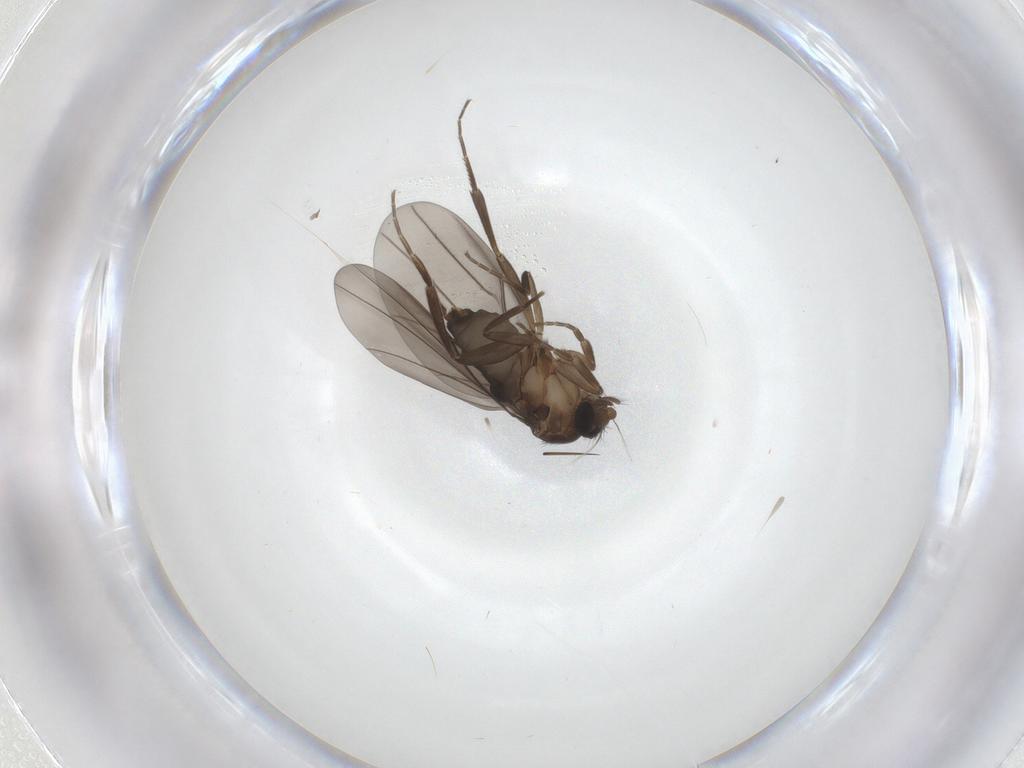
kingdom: Animalia
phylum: Arthropoda
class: Insecta
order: Diptera
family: Phoridae
